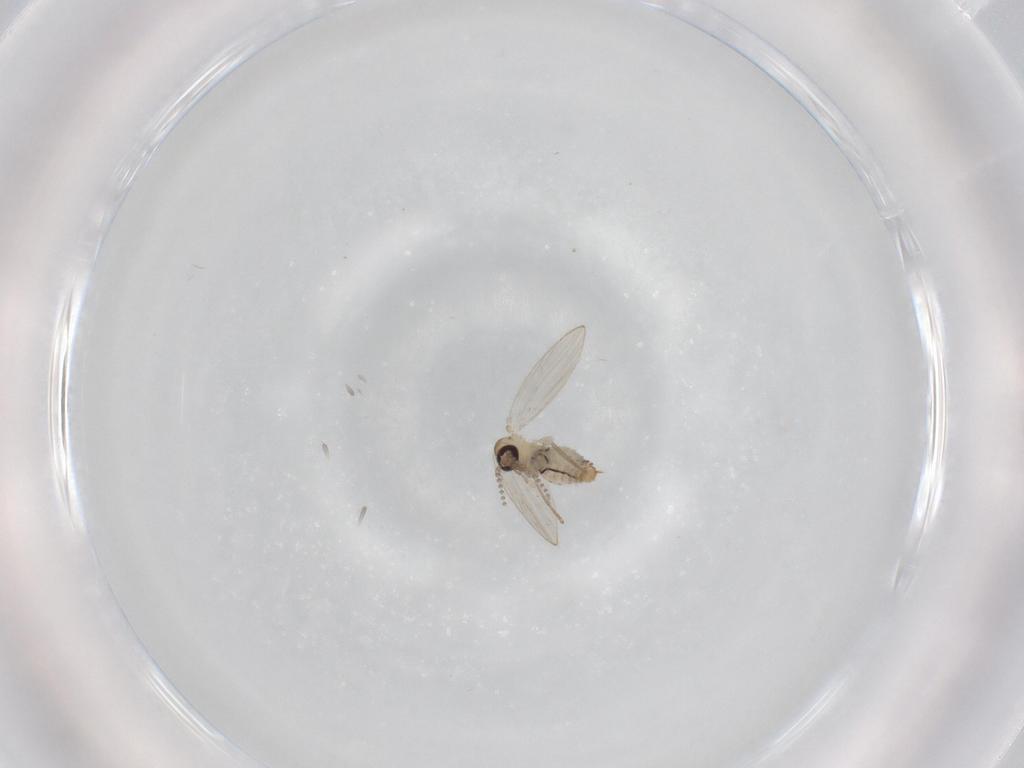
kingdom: Animalia
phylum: Arthropoda
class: Insecta
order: Diptera
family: Psychodidae
